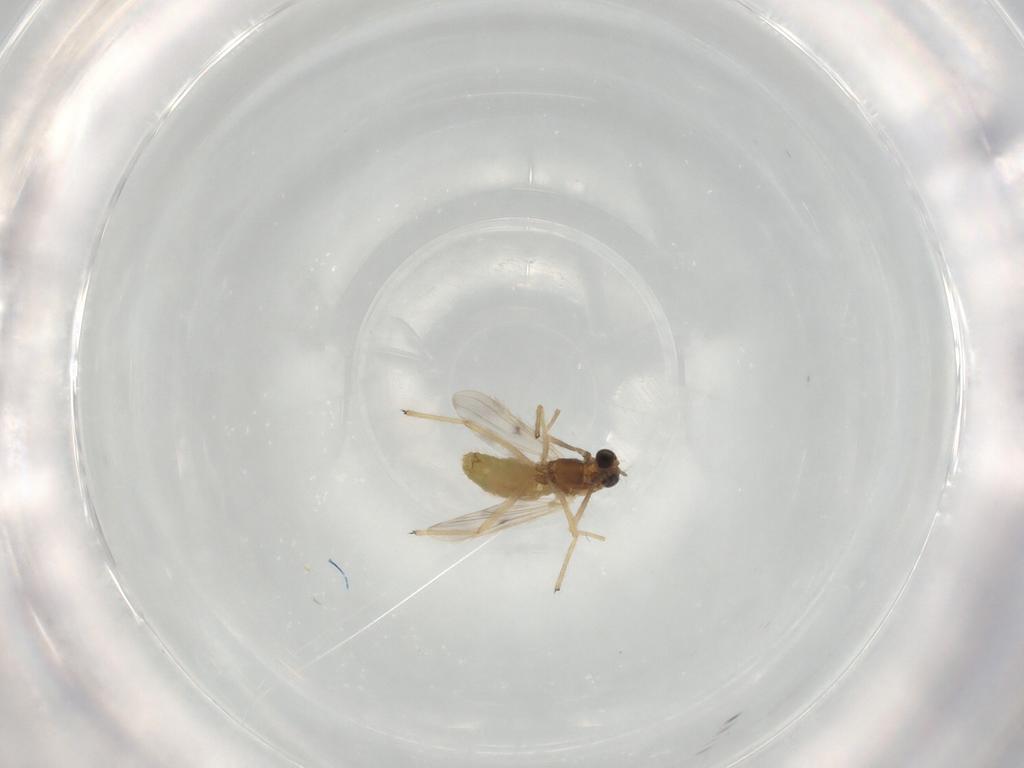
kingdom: Animalia
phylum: Arthropoda
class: Insecta
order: Diptera
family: Chironomidae
